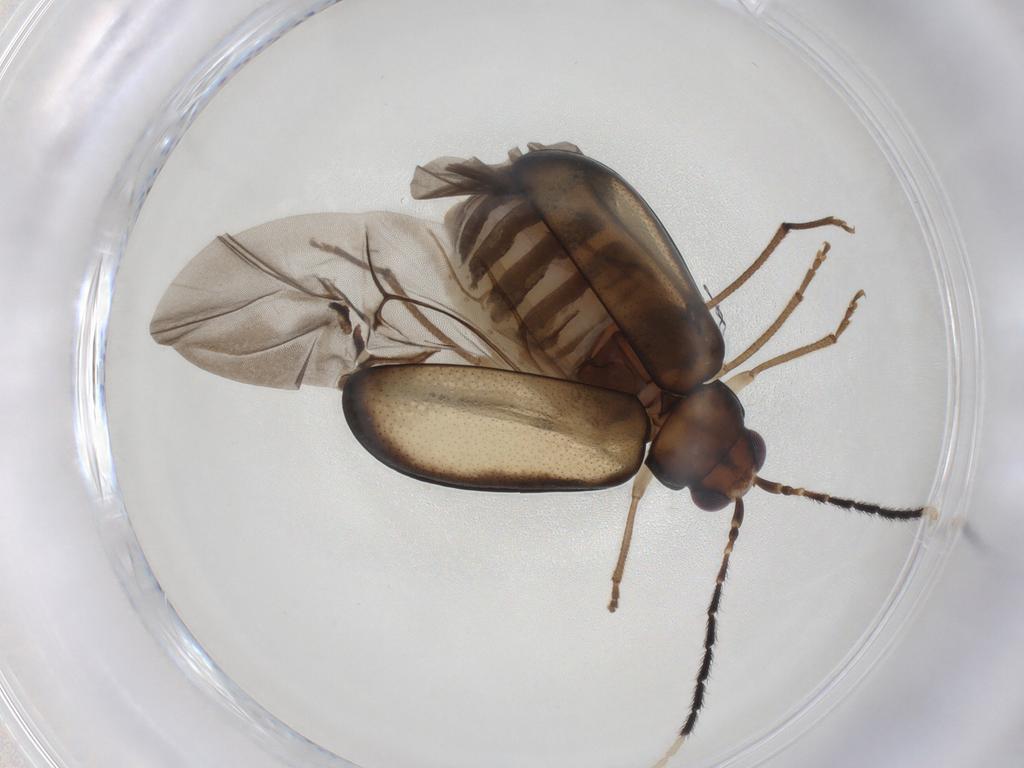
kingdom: Animalia
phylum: Arthropoda
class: Insecta
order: Coleoptera
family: Chrysomelidae
